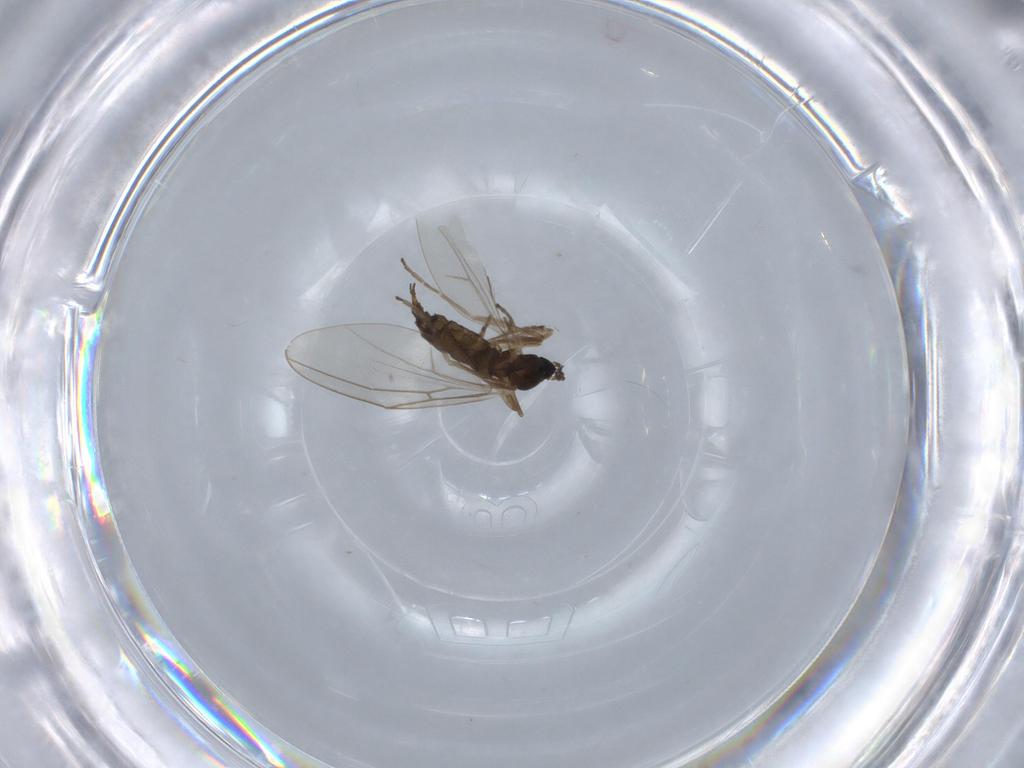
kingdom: Animalia
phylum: Arthropoda
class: Insecta
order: Diptera
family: Cecidomyiidae
